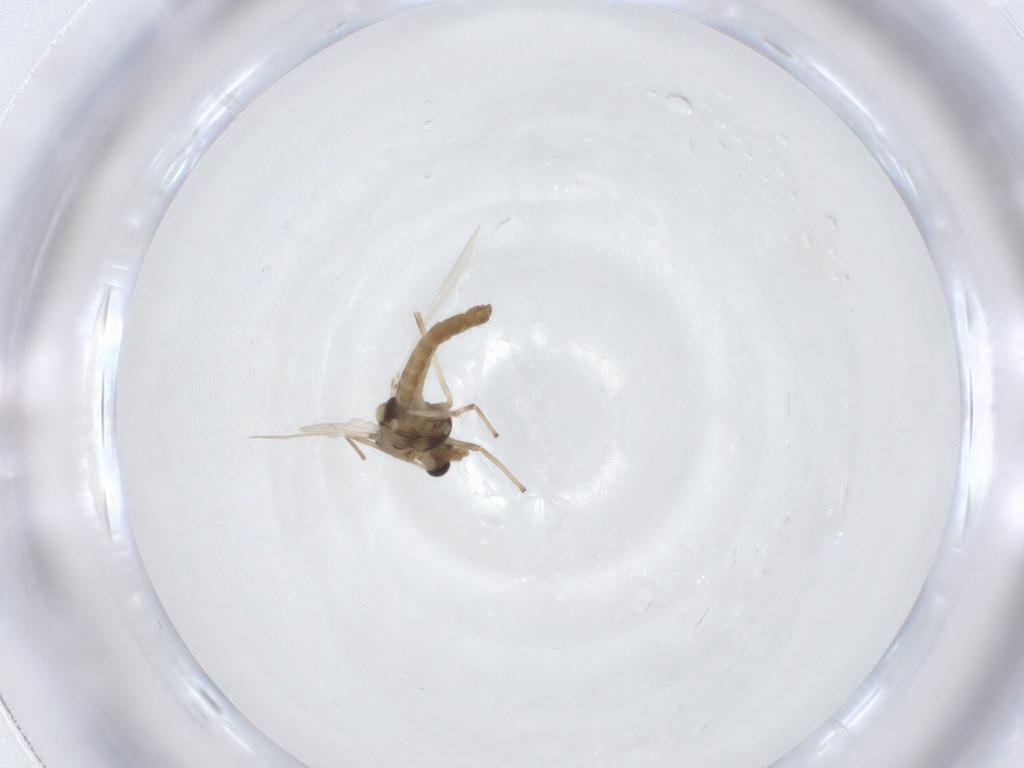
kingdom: Animalia
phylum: Arthropoda
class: Insecta
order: Diptera
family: Chironomidae
